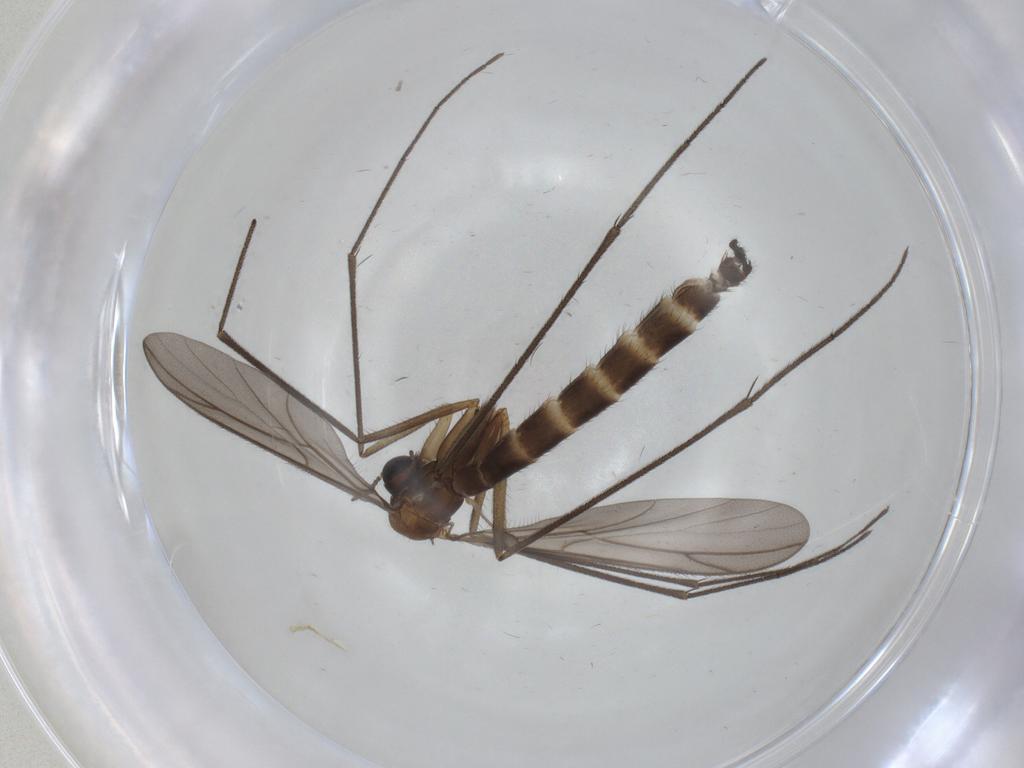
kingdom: Animalia
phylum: Arthropoda
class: Insecta
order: Diptera
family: Keroplatidae
